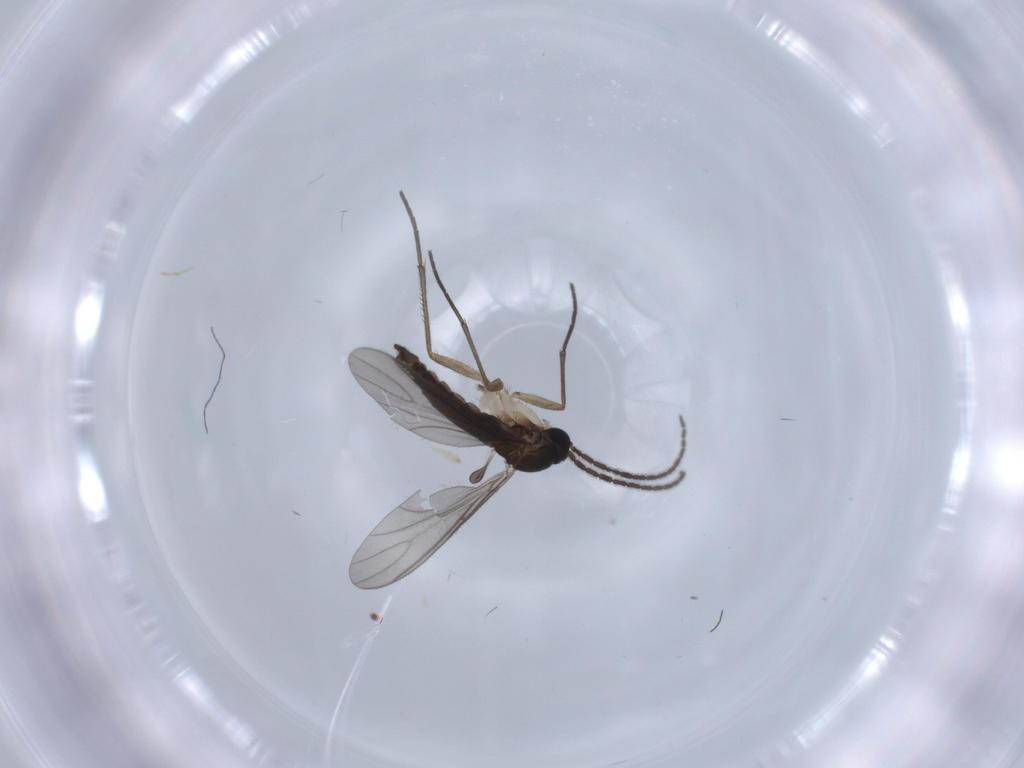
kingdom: Animalia
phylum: Arthropoda
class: Insecta
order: Diptera
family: Sciaridae
